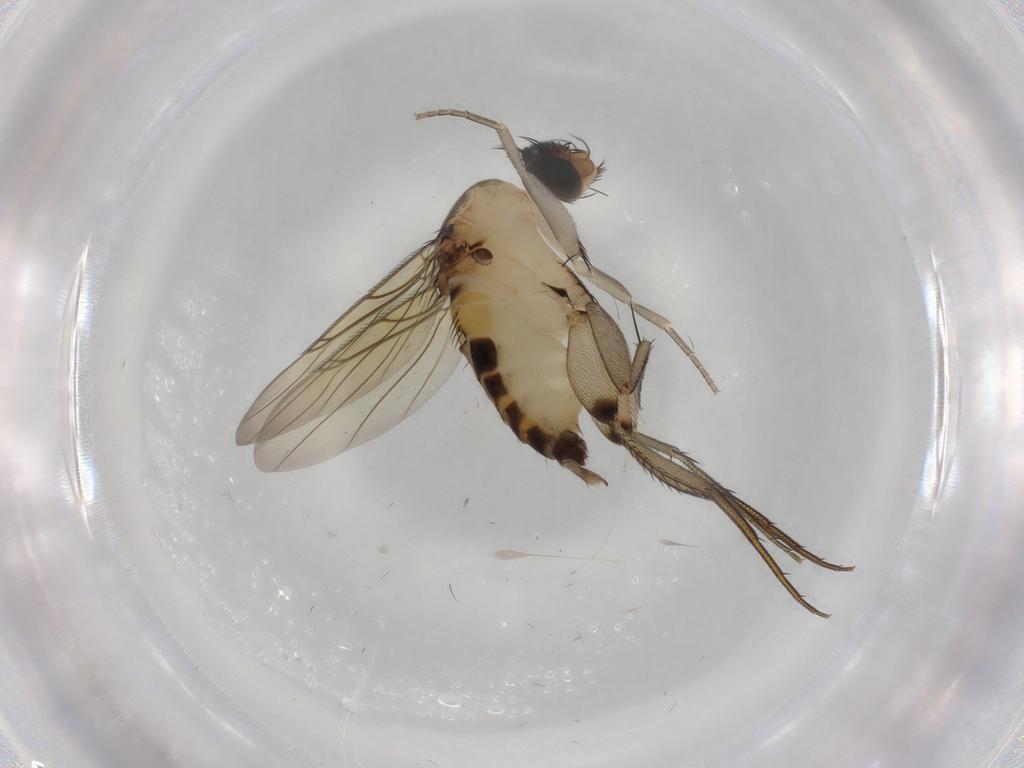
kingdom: Animalia
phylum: Arthropoda
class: Insecta
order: Diptera
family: Phoridae
